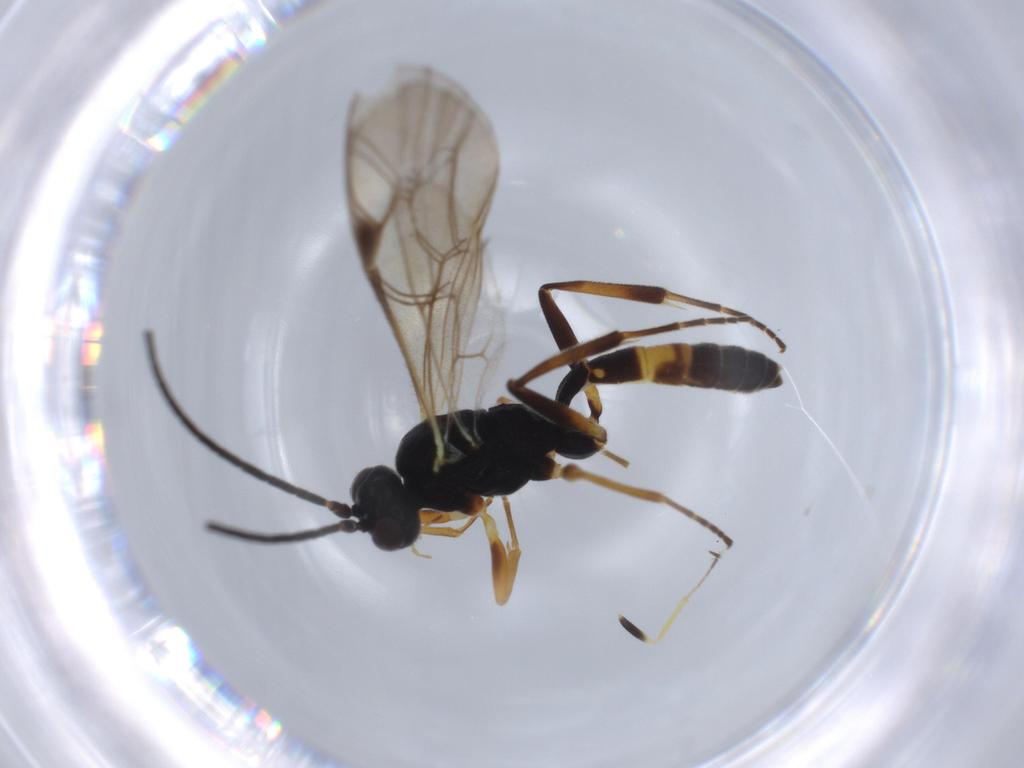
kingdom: Animalia
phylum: Arthropoda
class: Insecta
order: Hymenoptera
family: Ichneumonidae
